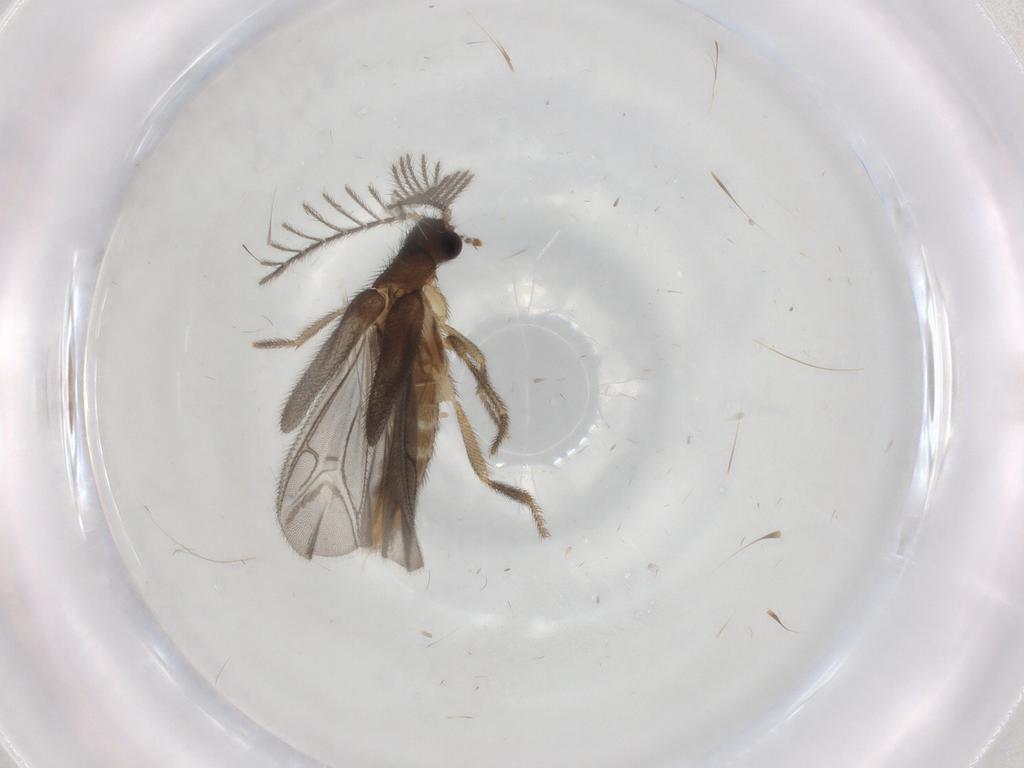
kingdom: Animalia
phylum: Arthropoda
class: Insecta
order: Coleoptera
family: Phengodidae
